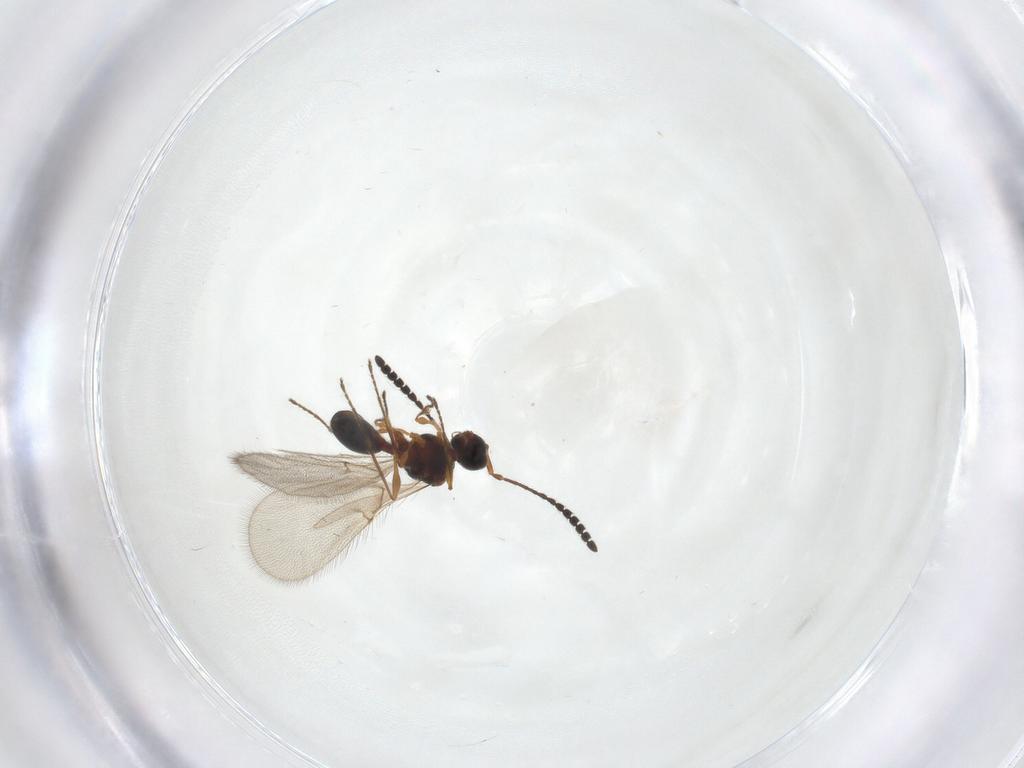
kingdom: Animalia
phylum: Arthropoda
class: Insecta
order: Hymenoptera
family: Diapriidae
